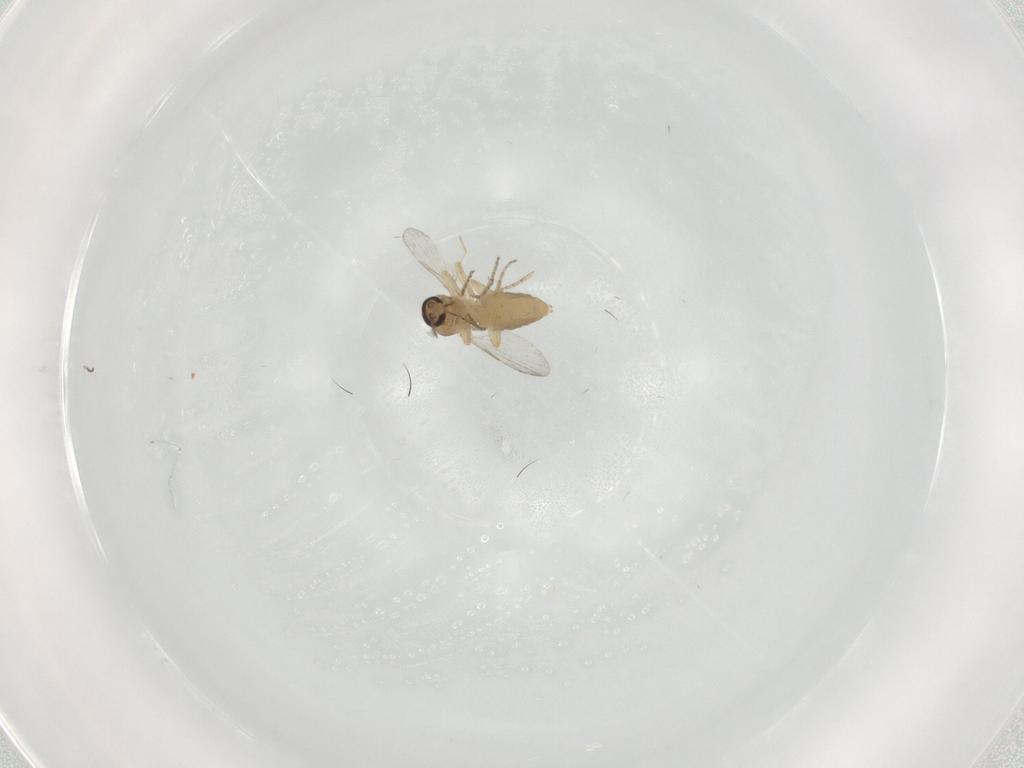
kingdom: Animalia
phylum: Arthropoda
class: Insecta
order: Diptera
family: Ceratopogonidae
